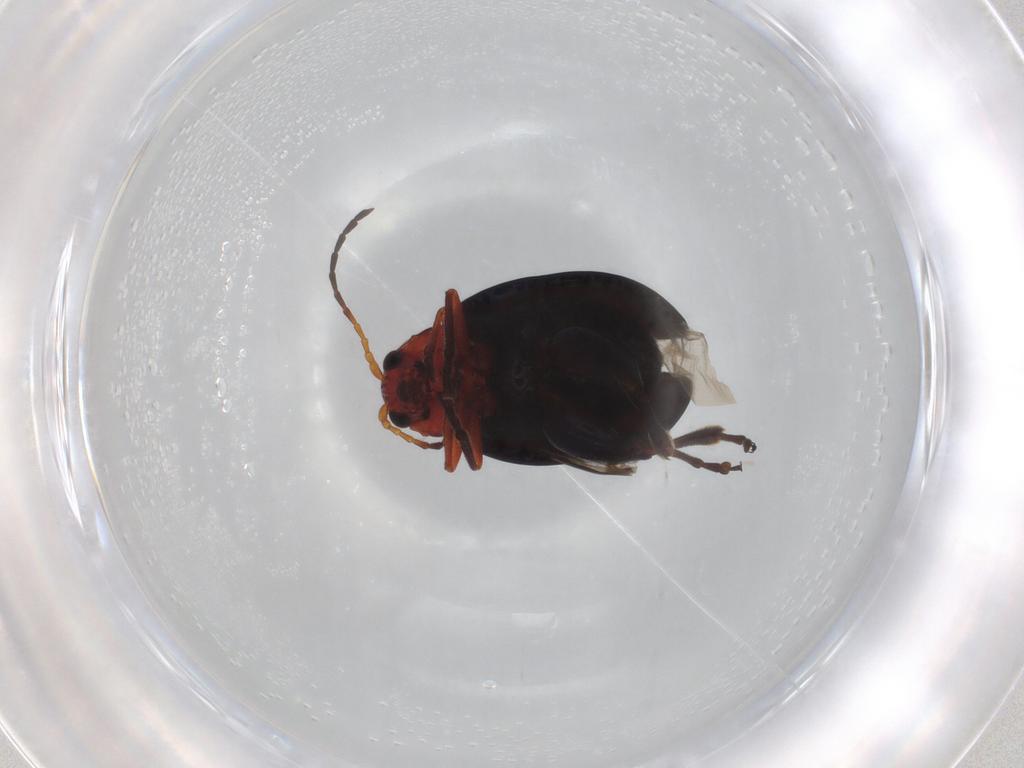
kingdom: Animalia
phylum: Arthropoda
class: Insecta
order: Coleoptera
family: Chrysomelidae
